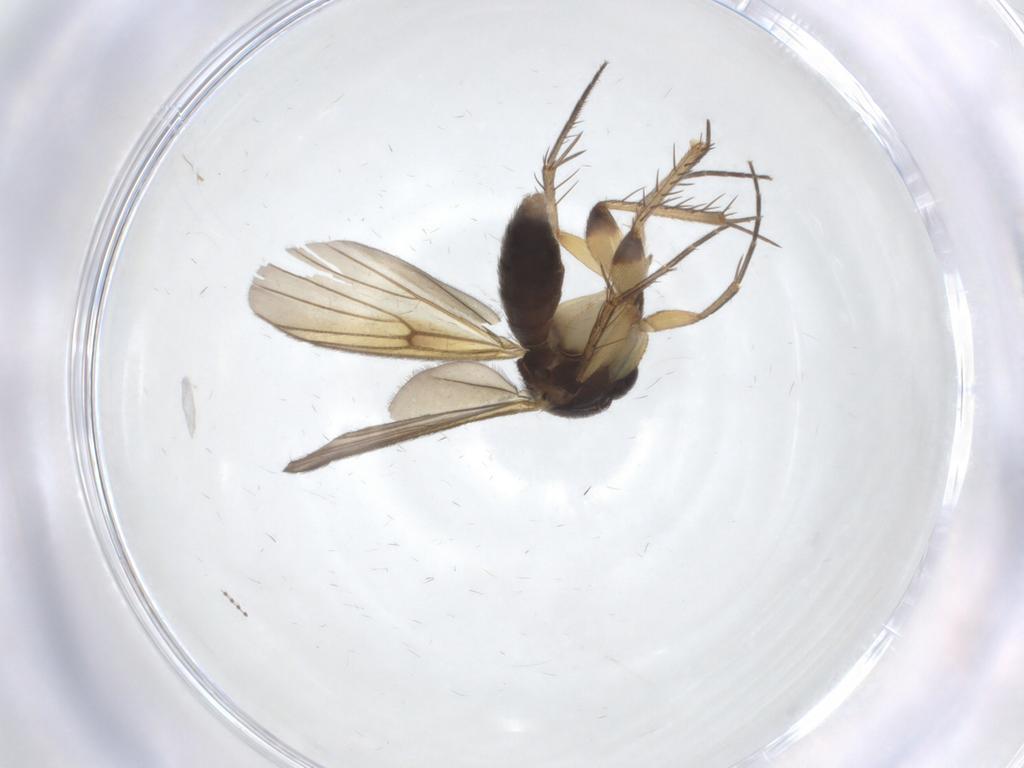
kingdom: Animalia
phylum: Arthropoda
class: Insecta
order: Diptera
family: Mycetophilidae
